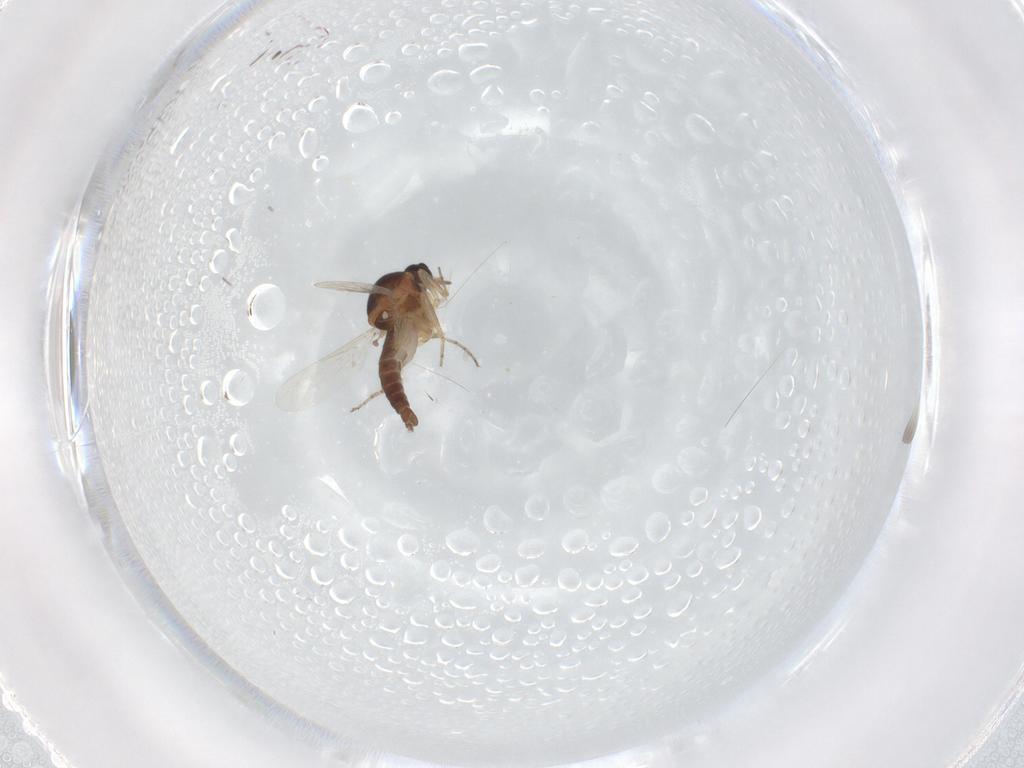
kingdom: Animalia
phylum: Arthropoda
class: Insecta
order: Diptera
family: Ceratopogonidae
